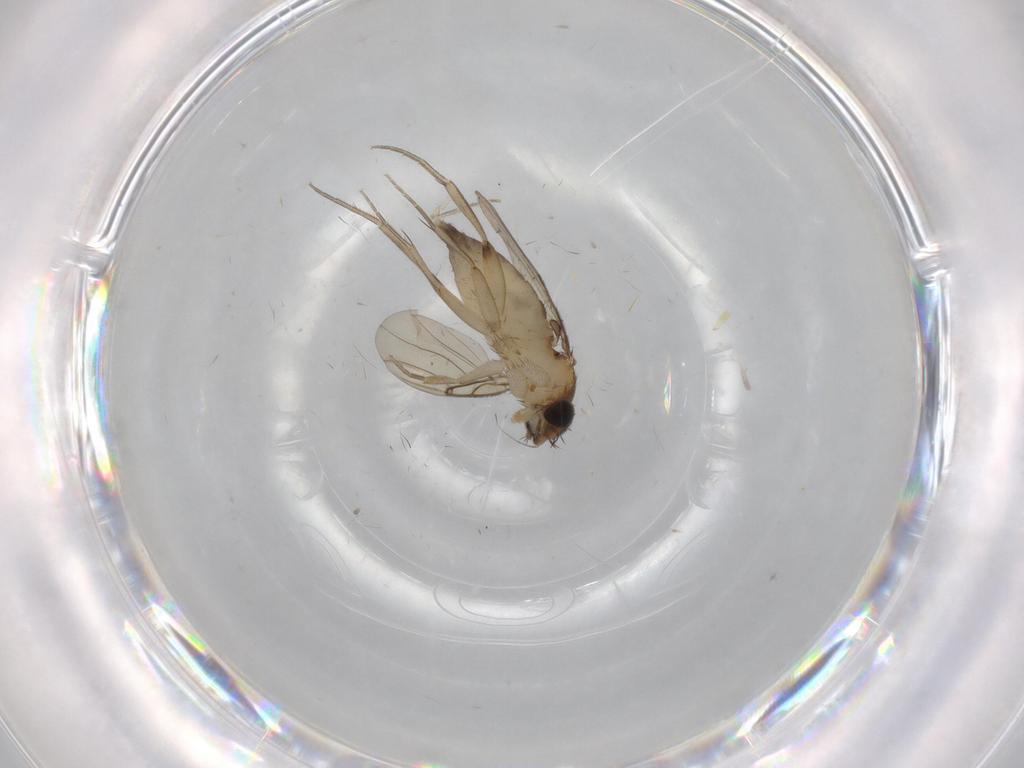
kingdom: Animalia
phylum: Arthropoda
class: Insecta
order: Diptera
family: Phoridae
